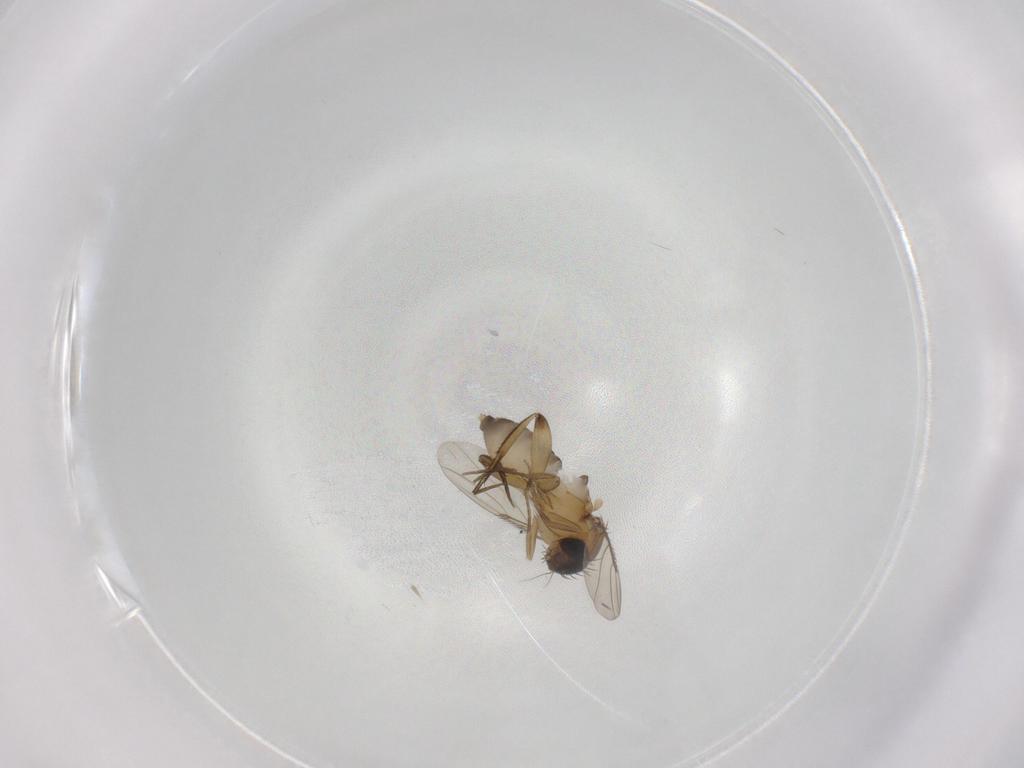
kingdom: Animalia
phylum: Arthropoda
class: Insecta
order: Diptera
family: Phoridae
